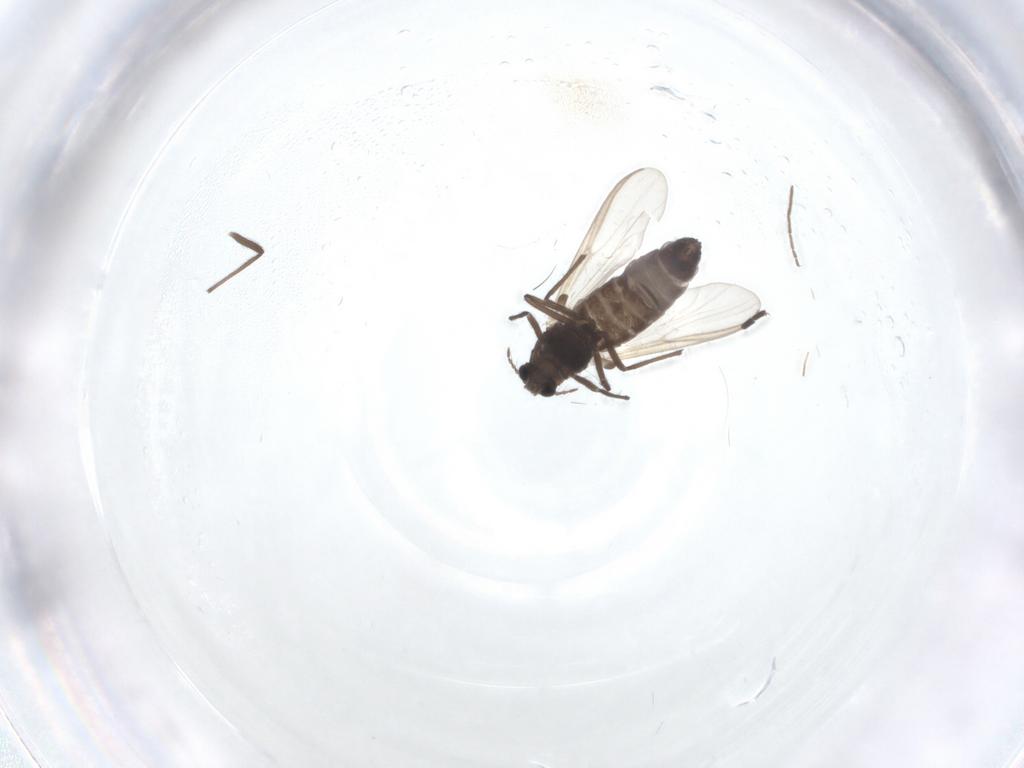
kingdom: Animalia
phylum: Arthropoda
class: Insecta
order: Diptera
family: Sciaridae
